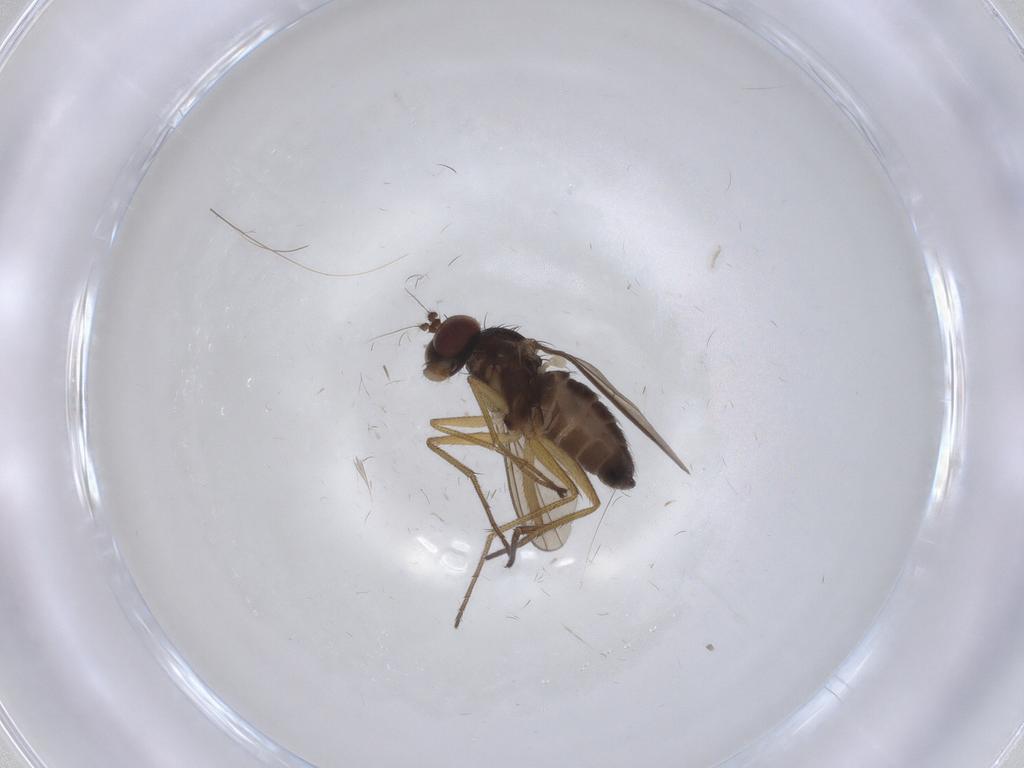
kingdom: Animalia
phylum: Arthropoda
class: Insecta
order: Diptera
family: Dolichopodidae
